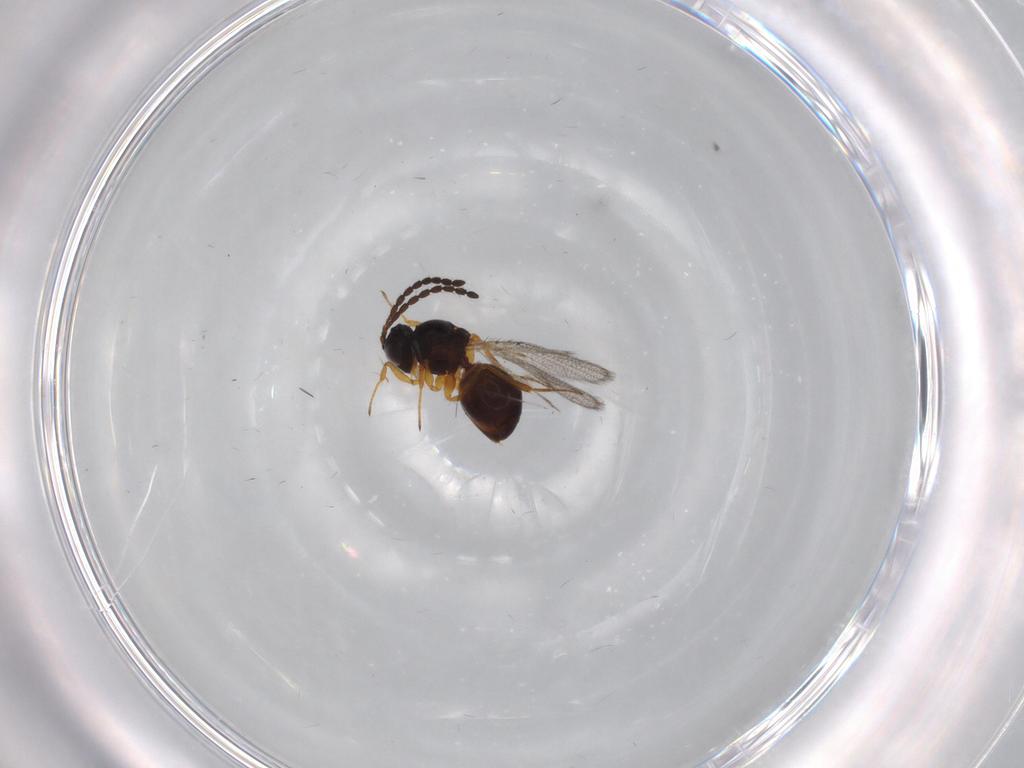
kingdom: Animalia
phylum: Arthropoda
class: Insecta
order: Hymenoptera
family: Figitidae
